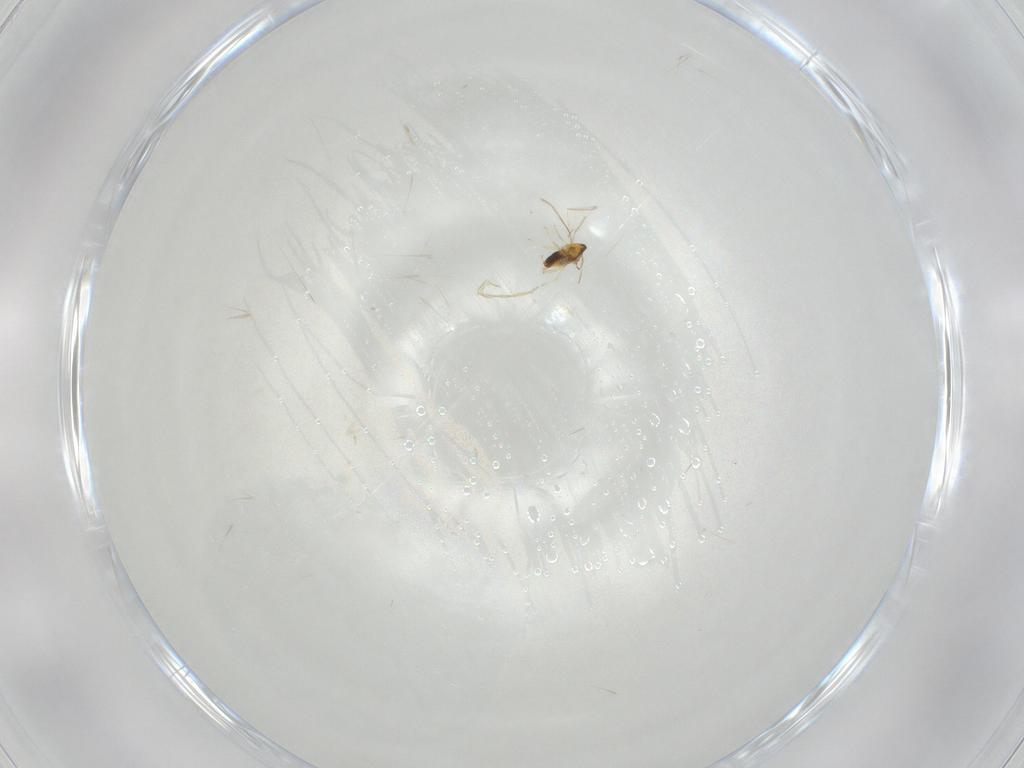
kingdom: Animalia
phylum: Arthropoda
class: Insecta
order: Hymenoptera
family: Aphelinidae
